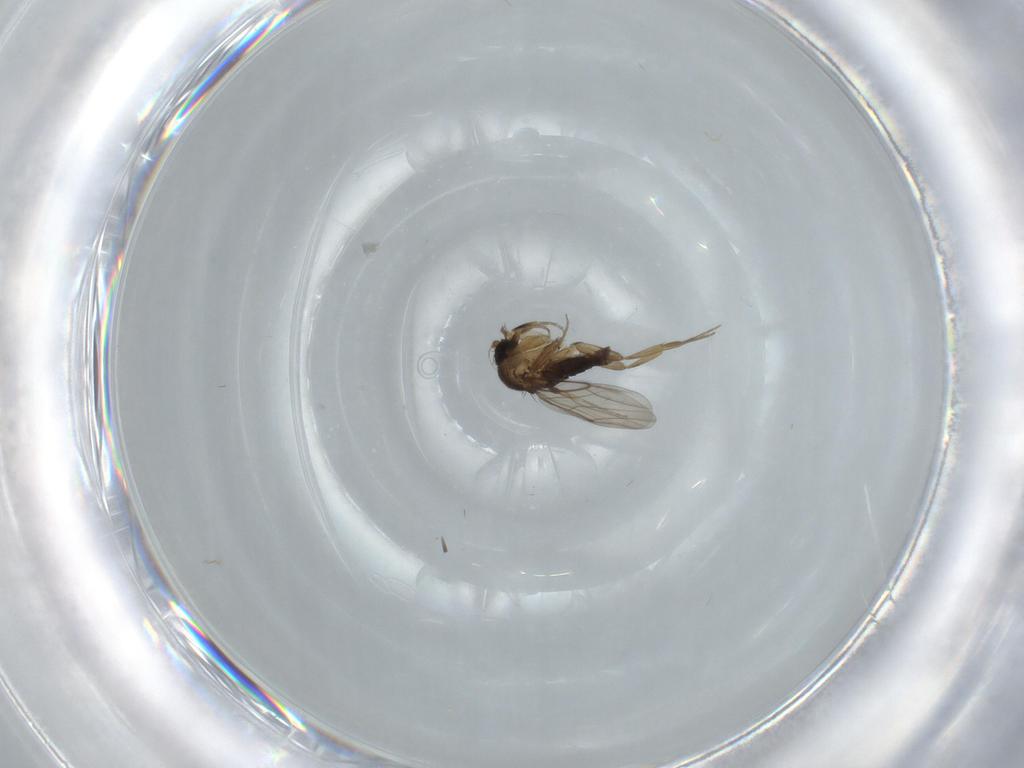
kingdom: Animalia
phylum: Arthropoda
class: Insecta
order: Diptera
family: Phoridae
